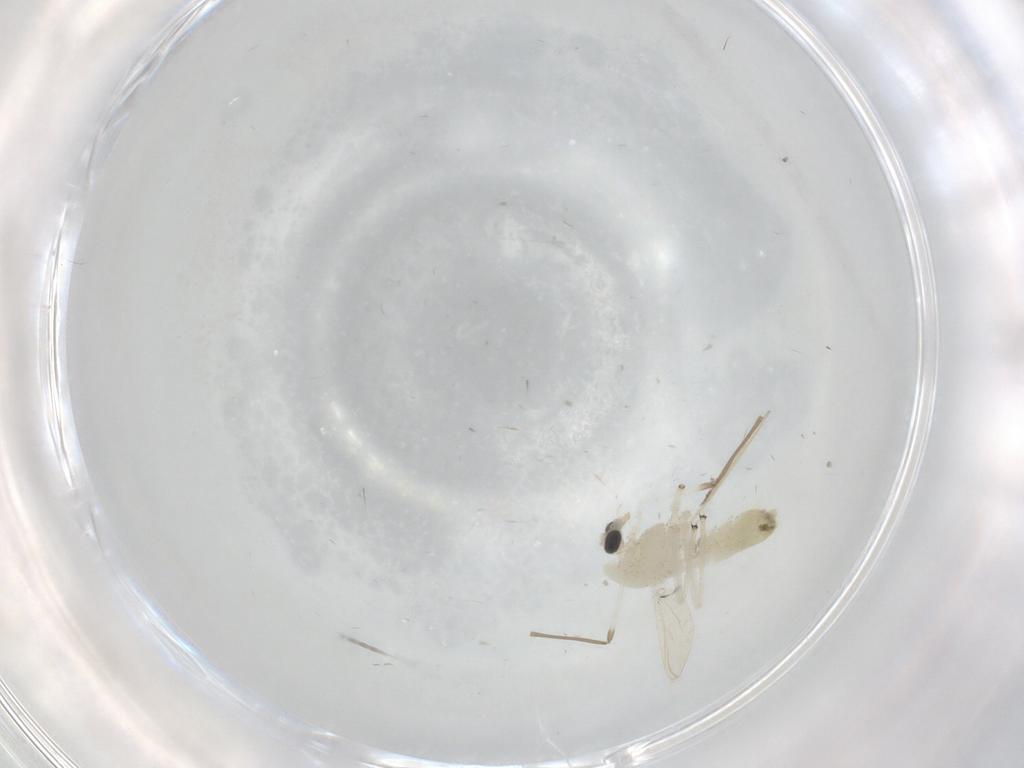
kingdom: Animalia
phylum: Arthropoda
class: Insecta
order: Diptera
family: Chironomidae
